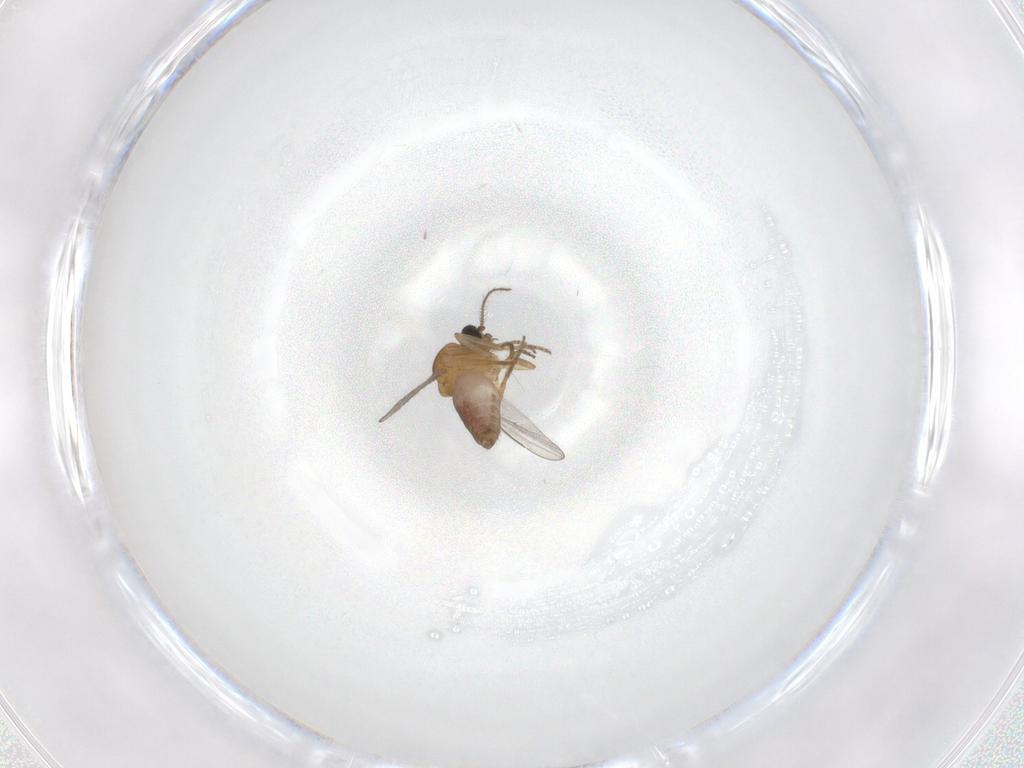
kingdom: Animalia
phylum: Arthropoda
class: Insecta
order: Diptera
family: Ceratopogonidae
